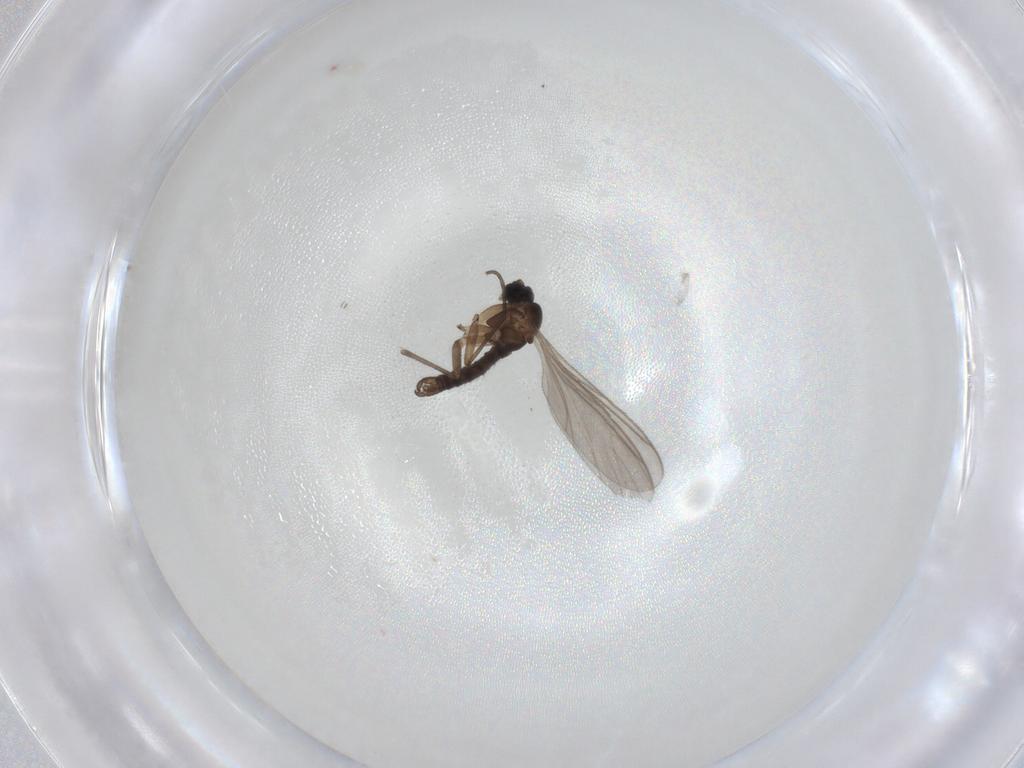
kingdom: Animalia
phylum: Arthropoda
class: Insecta
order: Diptera
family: Sciaridae
